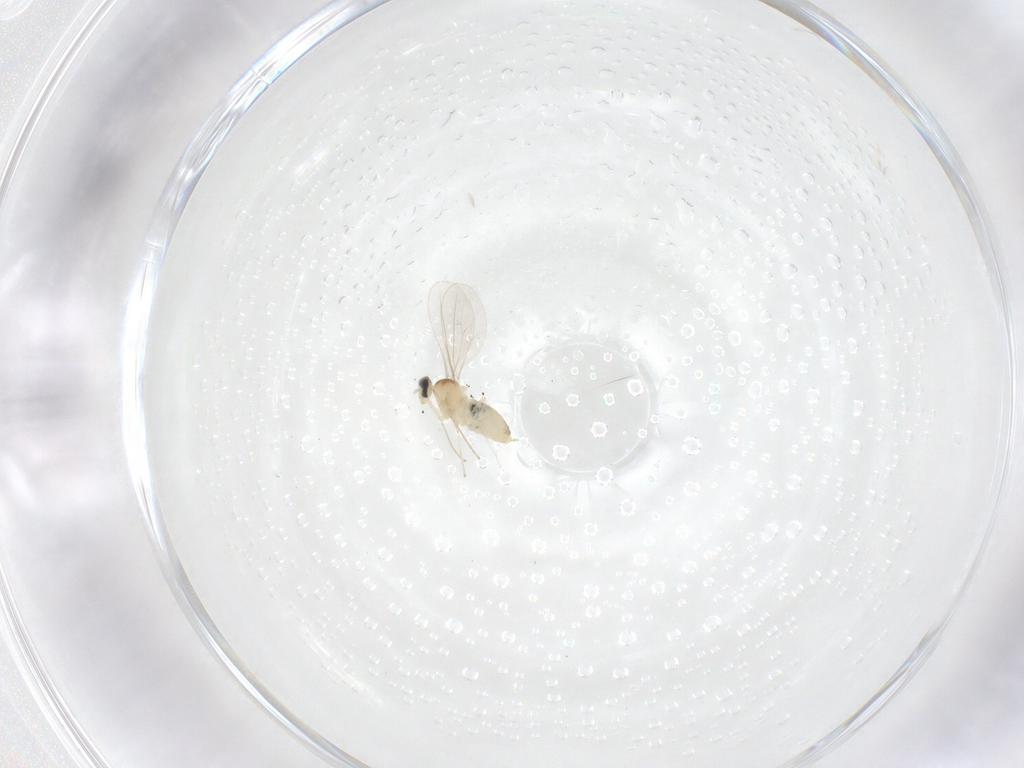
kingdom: Animalia
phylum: Arthropoda
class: Insecta
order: Diptera
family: Cecidomyiidae
